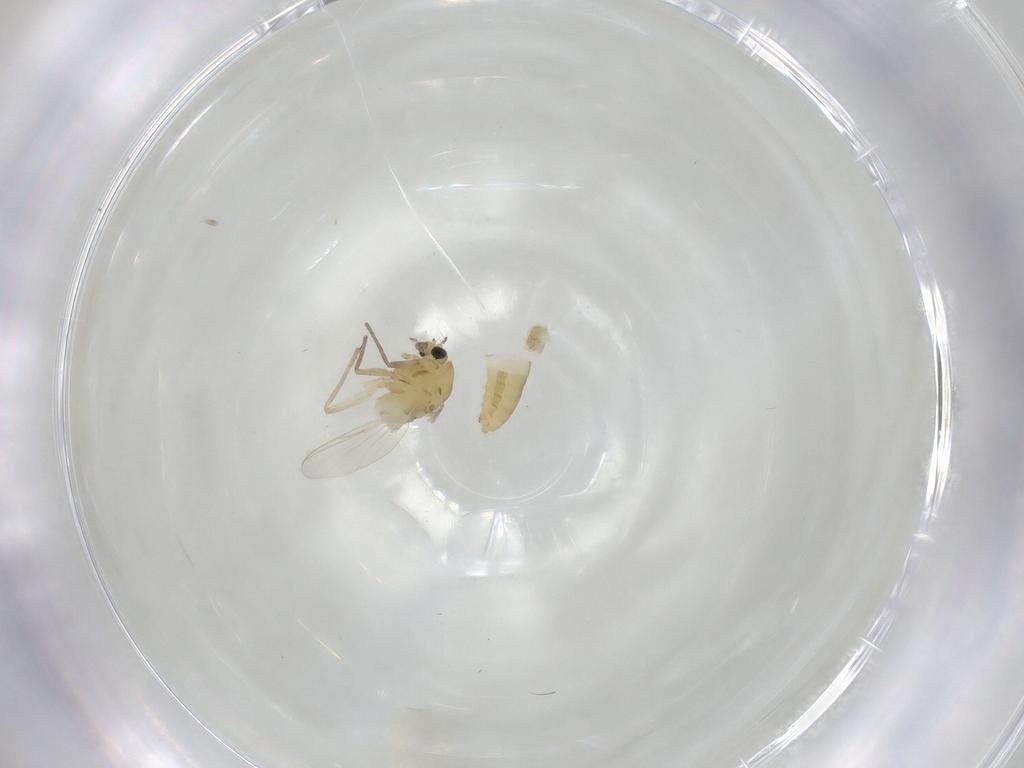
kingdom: Animalia
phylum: Arthropoda
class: Insecta
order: Diptera
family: Chironomidae
